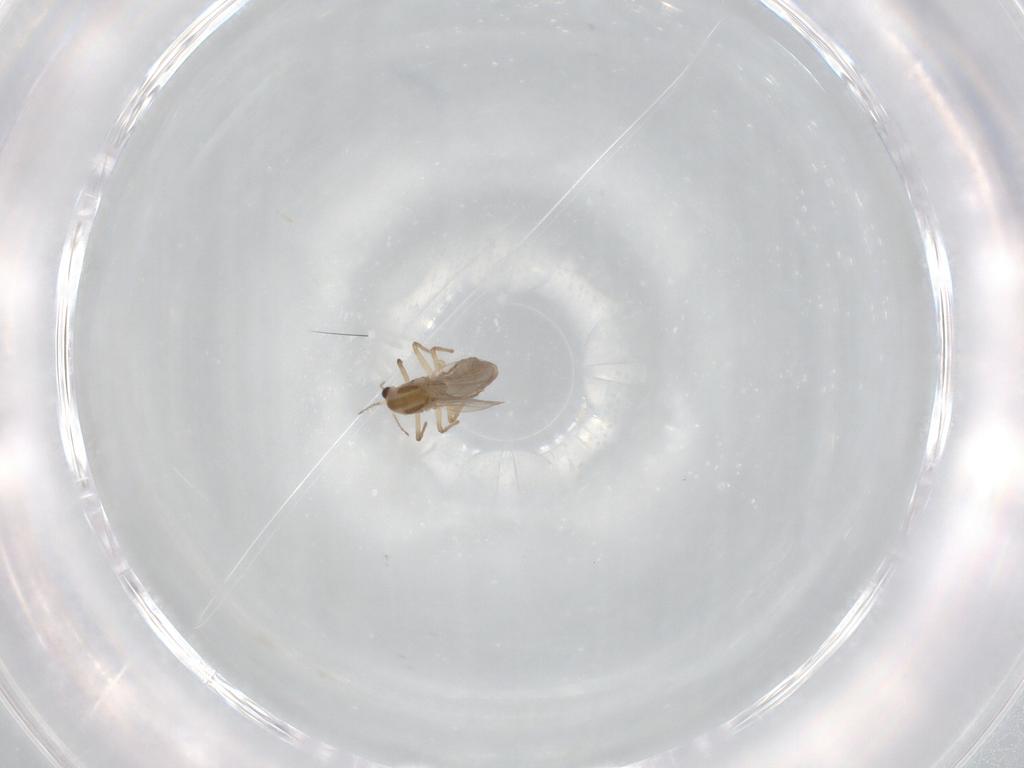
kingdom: Animalia
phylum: Arthropoda
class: Insecta
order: Diptera
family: Chironomidae
